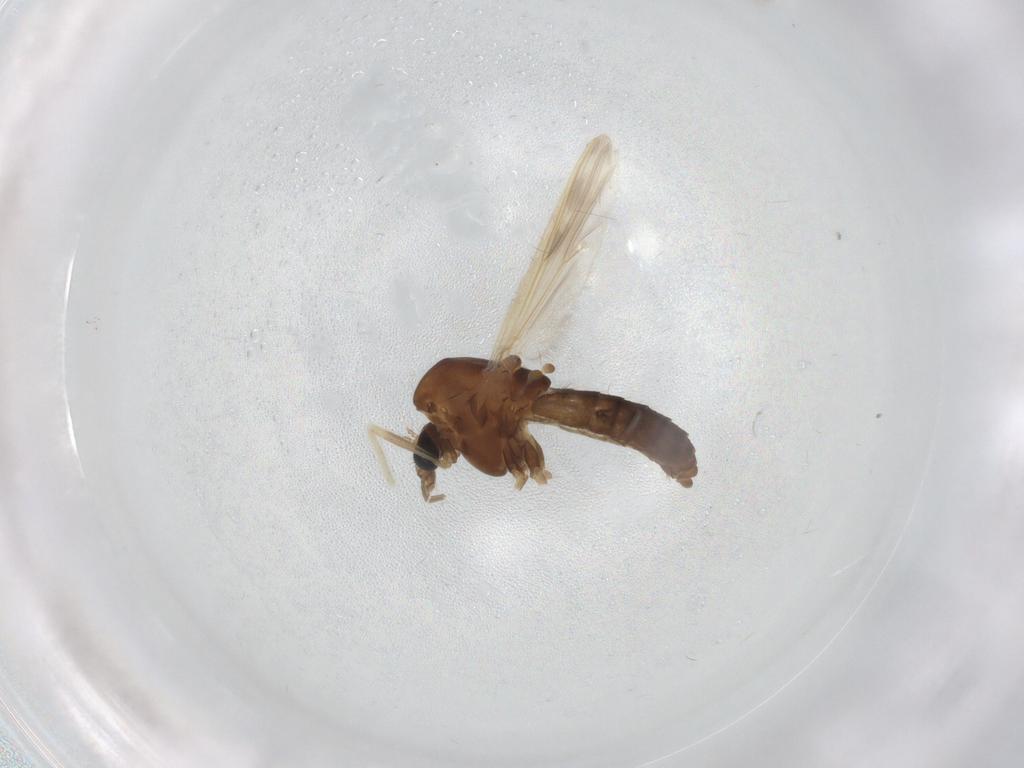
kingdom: Animalia
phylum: Arthropoda
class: Insecta
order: Diptera
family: Chironomidae
